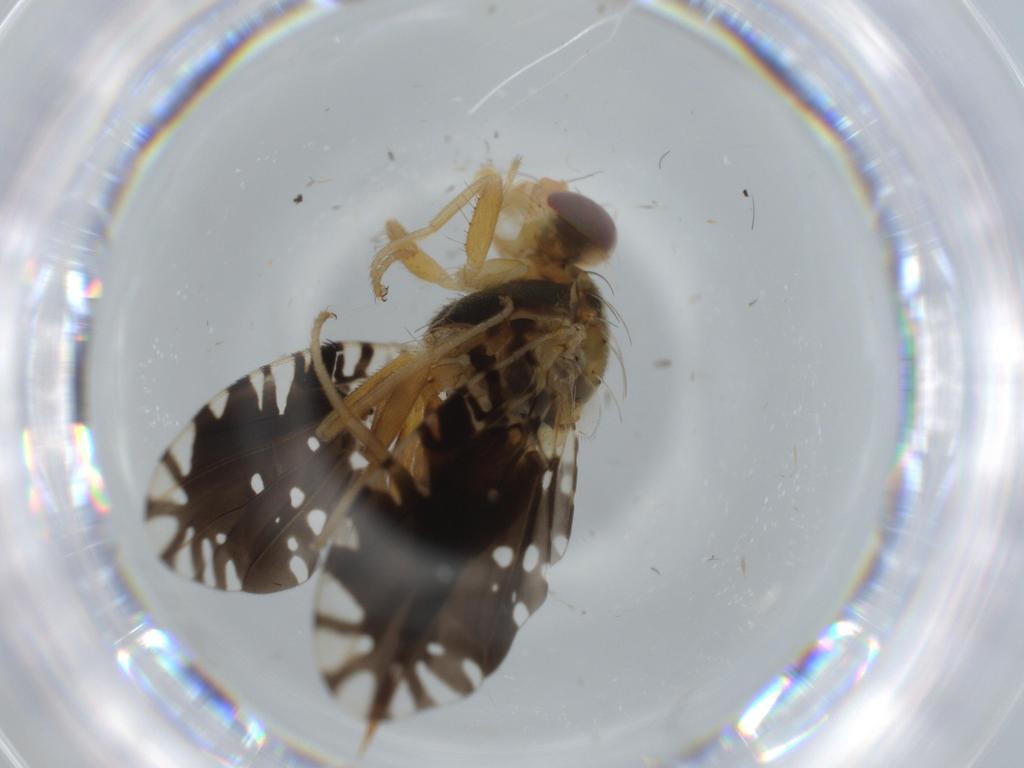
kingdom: Animalia
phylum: Arthropoda
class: Insecta
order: Diptera
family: Tephritidae
